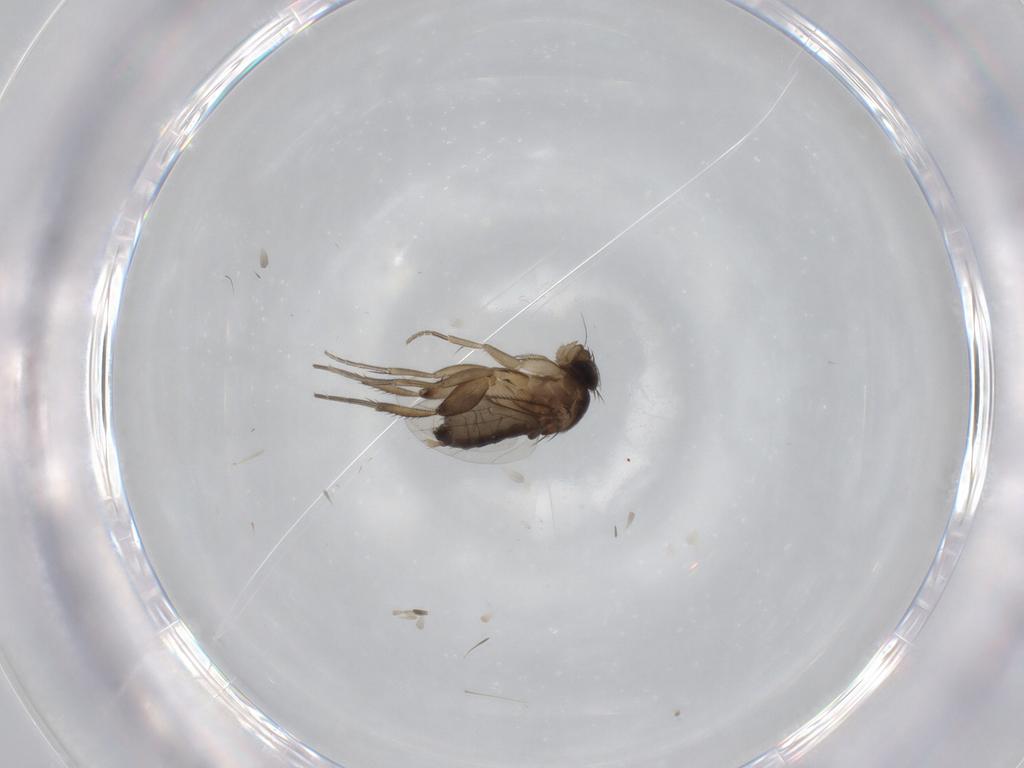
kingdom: Animalia
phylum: Arthropoda
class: Insecta
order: Diptera
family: Phoridae
